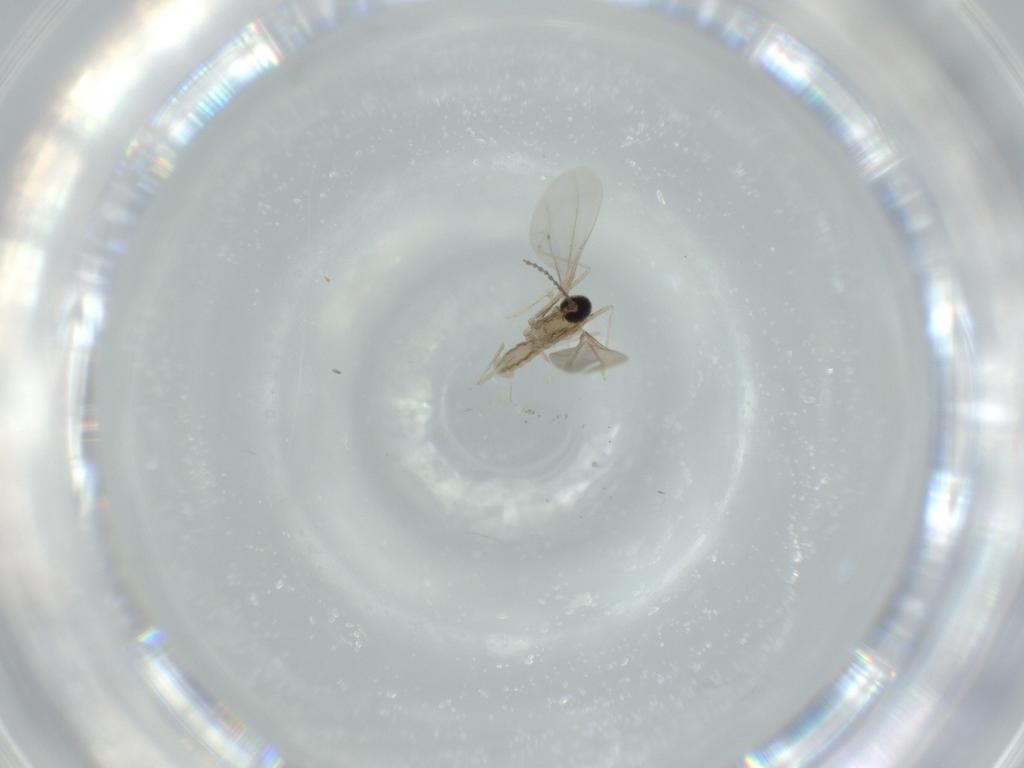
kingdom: Animalia
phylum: Arthropoda
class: Insecta
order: Diptera
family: Cecidomyiidae
